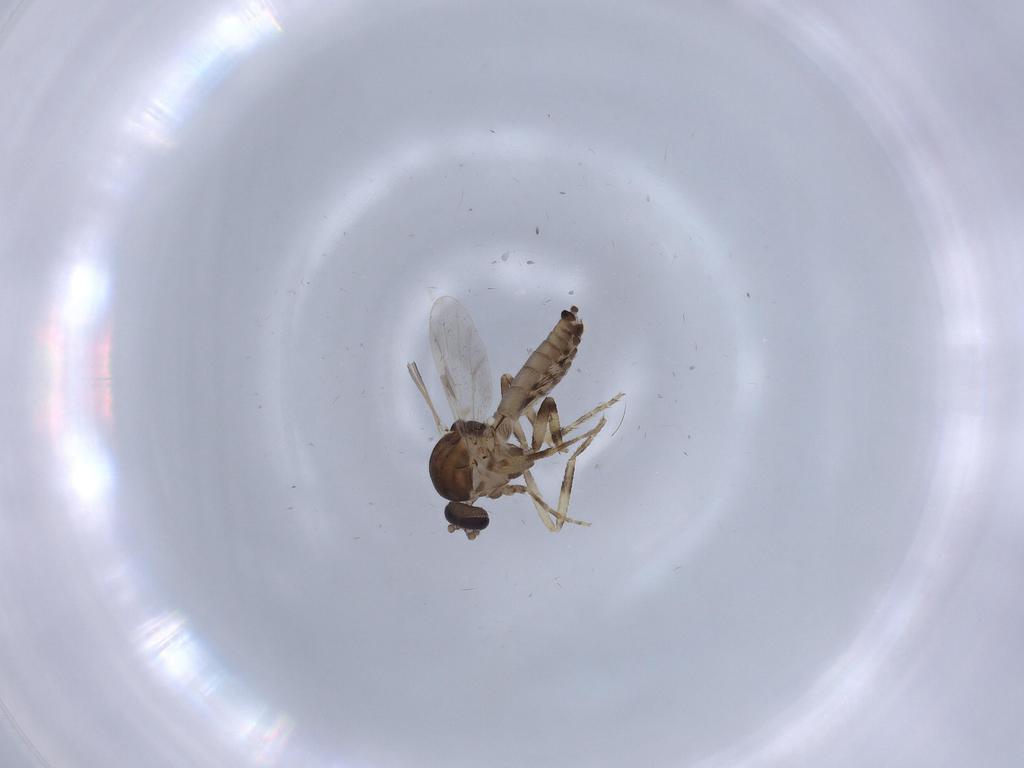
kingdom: Animalia
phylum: Arthropoda
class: Insecta
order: Diptera
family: Ceratopogonidae
